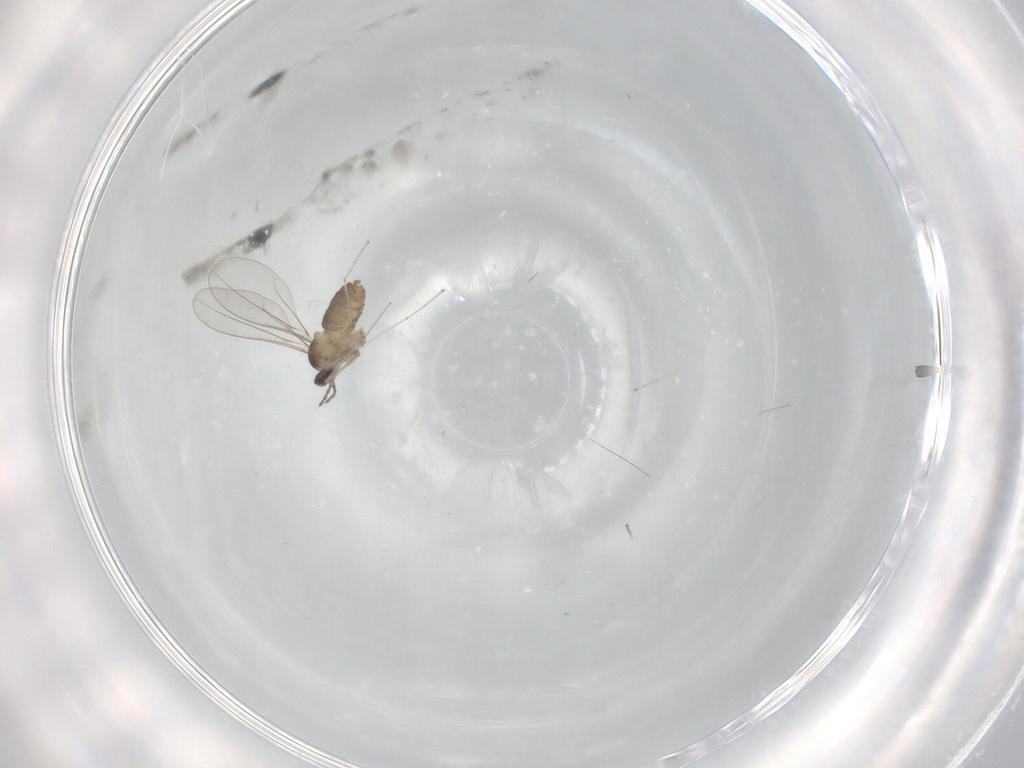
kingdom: Animalia
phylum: Arthropoda
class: Insecta
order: Diptera
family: Cecidomyiidae
